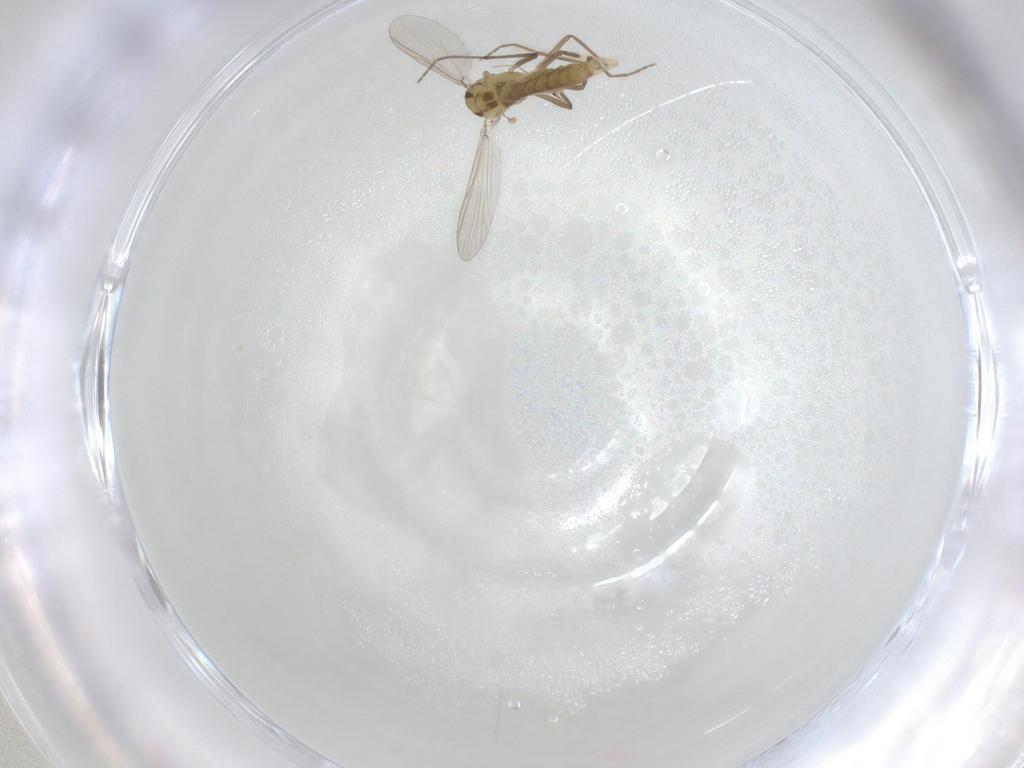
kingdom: Animalia
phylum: Arthropoda
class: Insecta
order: Diptera
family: Chironomidae
